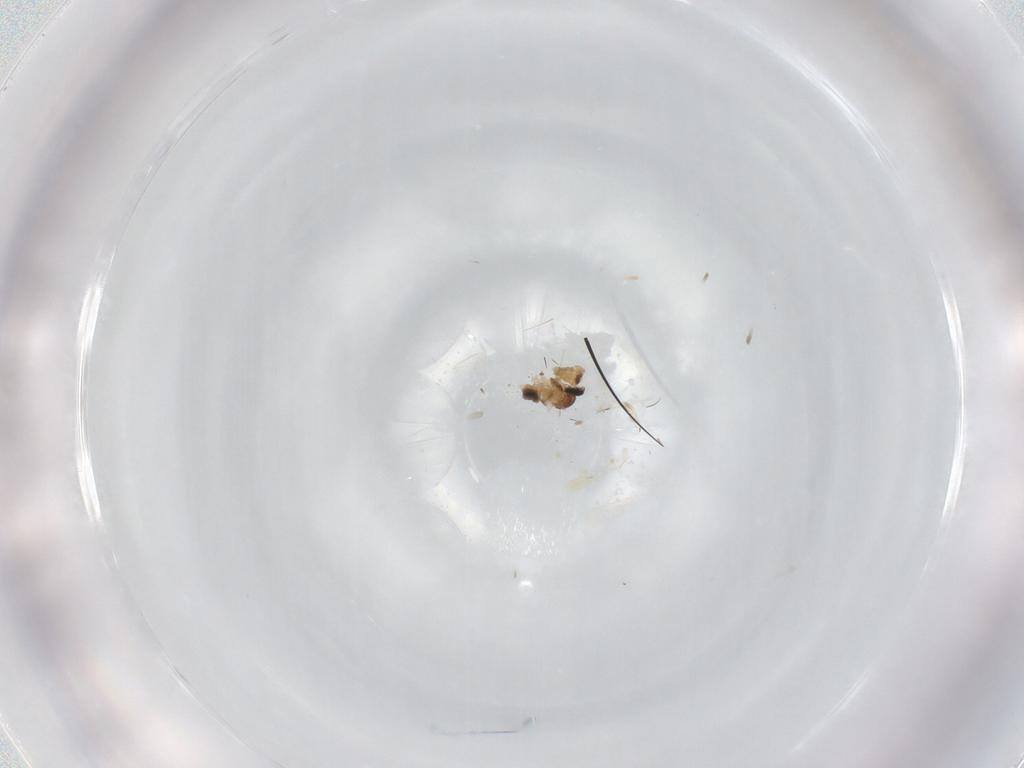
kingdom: Animalia
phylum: Arthropoda
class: Insecta
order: Diptera
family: Cecidomyiidae
